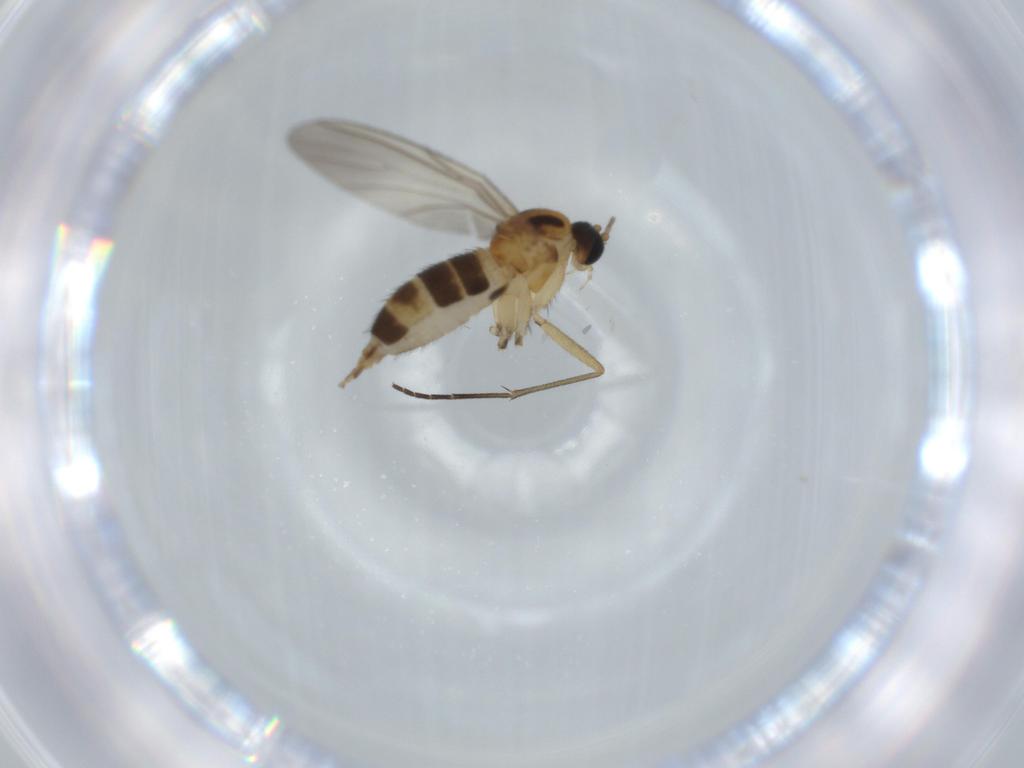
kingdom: Animalia
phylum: Arthropoda
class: Insecta
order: Diptera
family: Sciaridae
